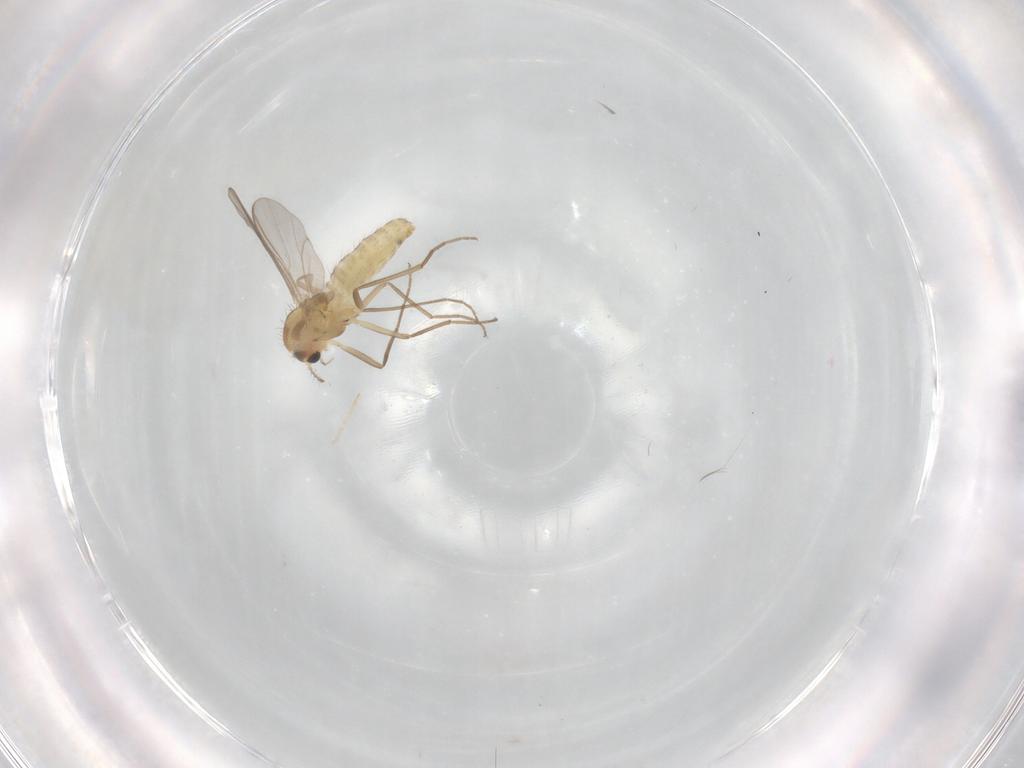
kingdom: Animalia
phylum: Arthropoda
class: Insecta
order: Diptera
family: Chironomidae
